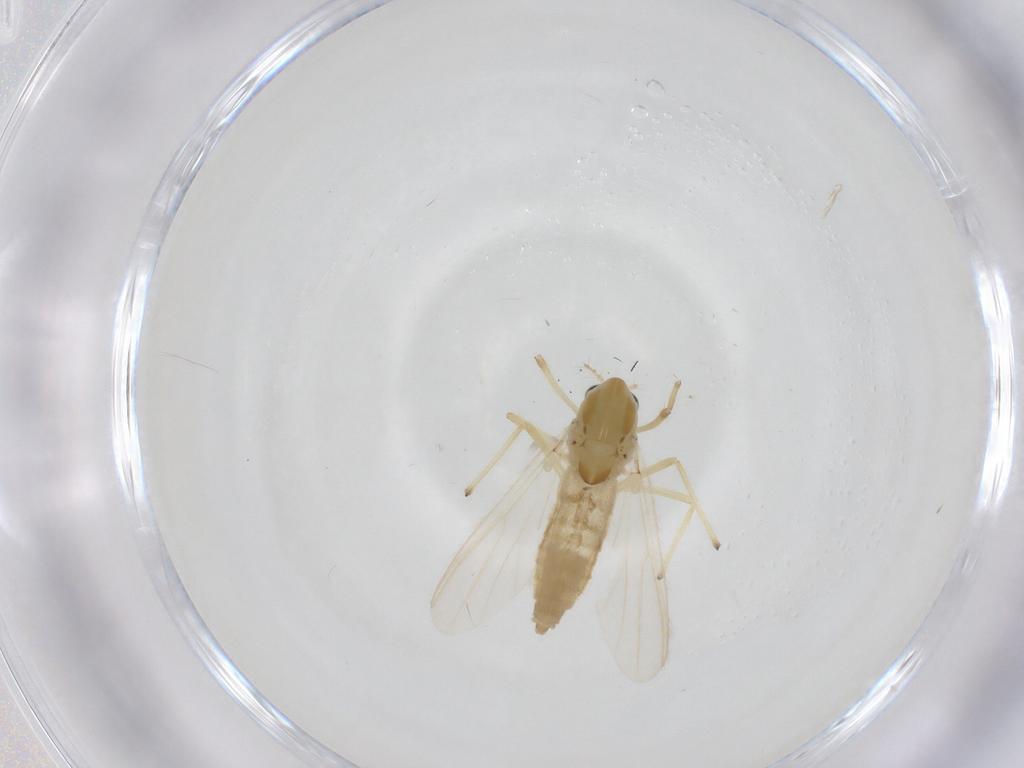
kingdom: Animalia
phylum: Arthropoda
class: Insecta
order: Diptera
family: Chironomidae
